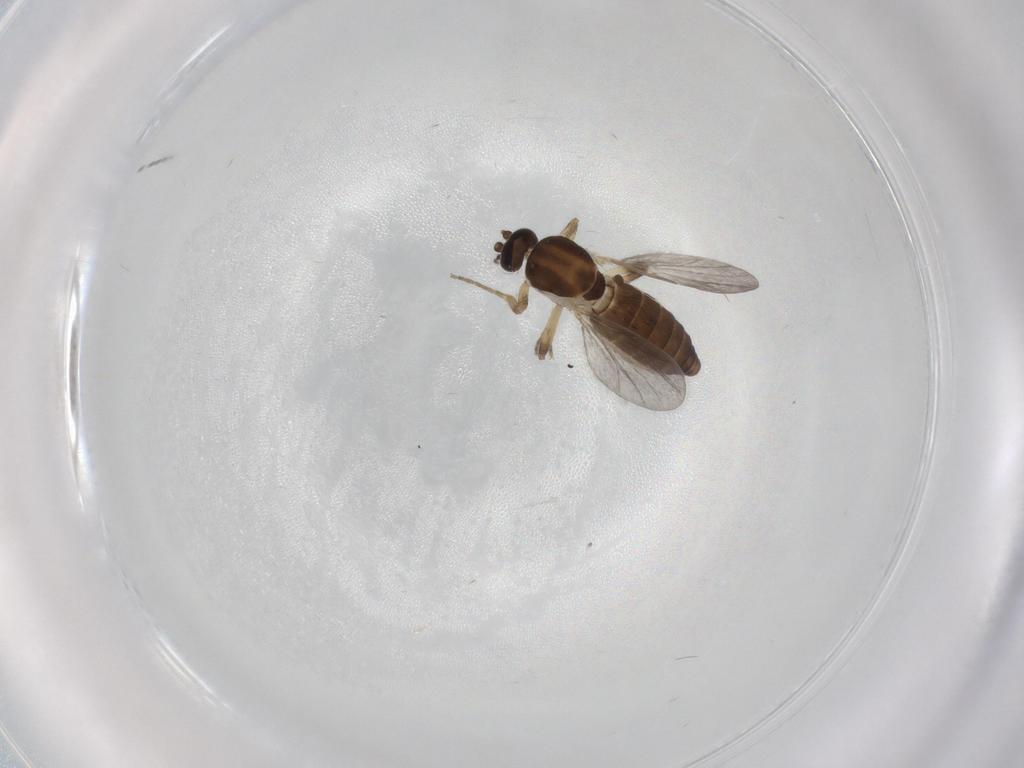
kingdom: Animalia
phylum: Arthropoda
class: Insecta
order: Diptera
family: Ceratopogonidae
